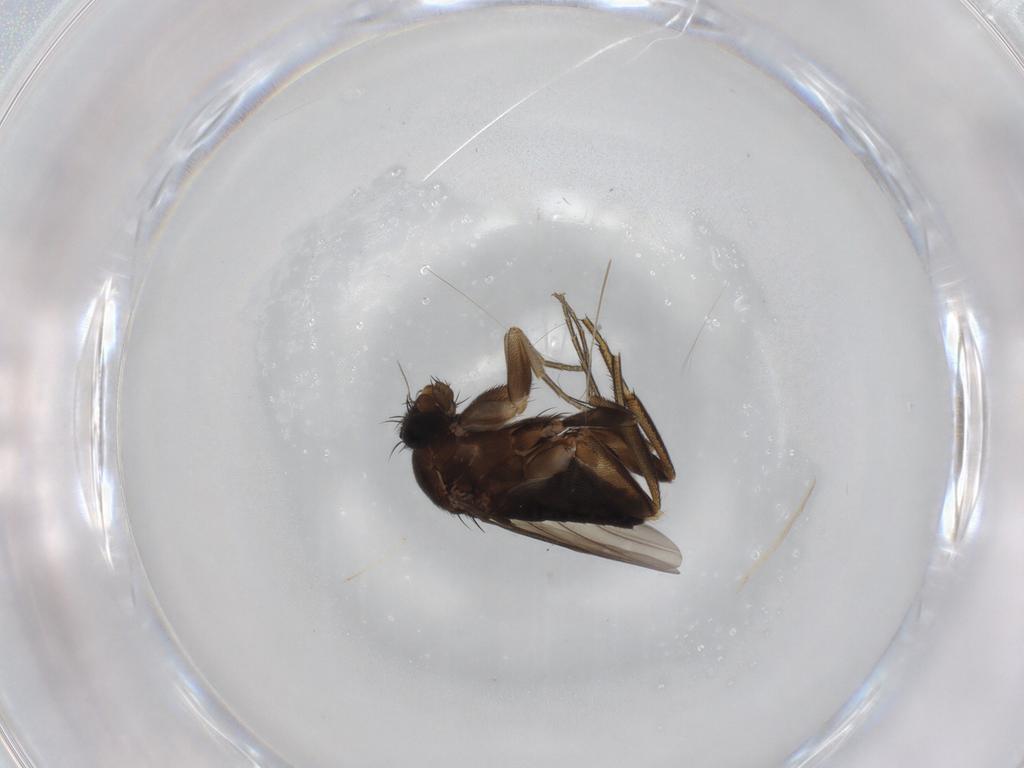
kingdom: Animalia
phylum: Arthropoda
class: Insecta
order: Diptera
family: Phoridae
